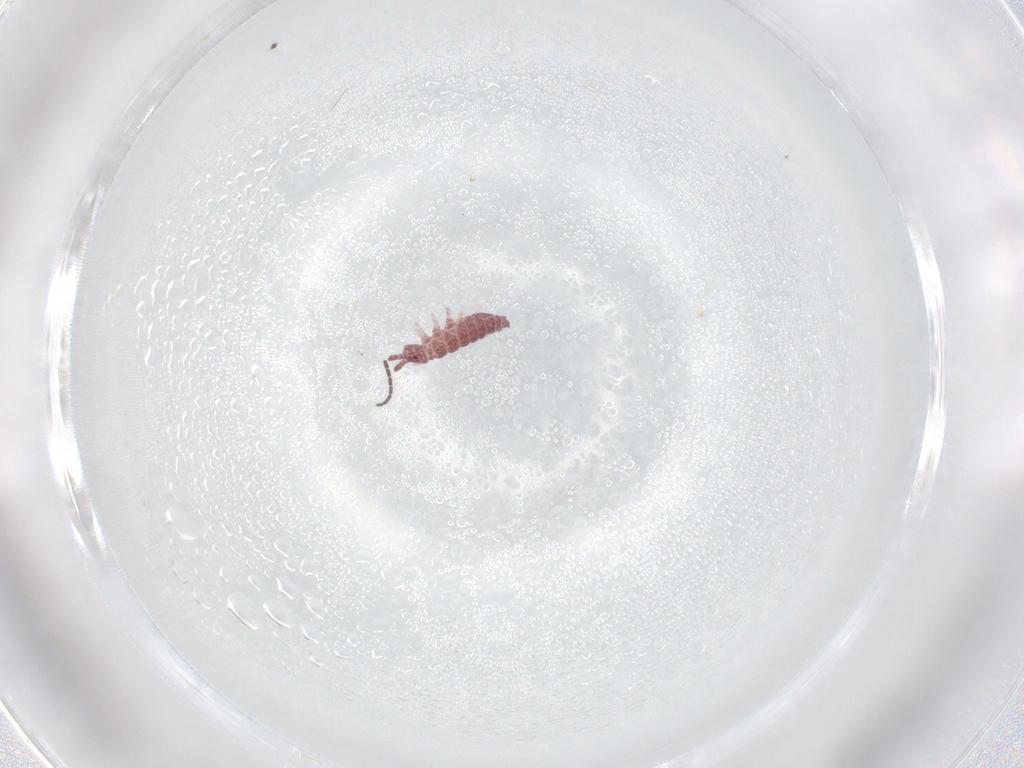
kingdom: Animalia
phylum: Arthropoda
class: Collembola
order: Poduromorpha
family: Hypogastruridae
